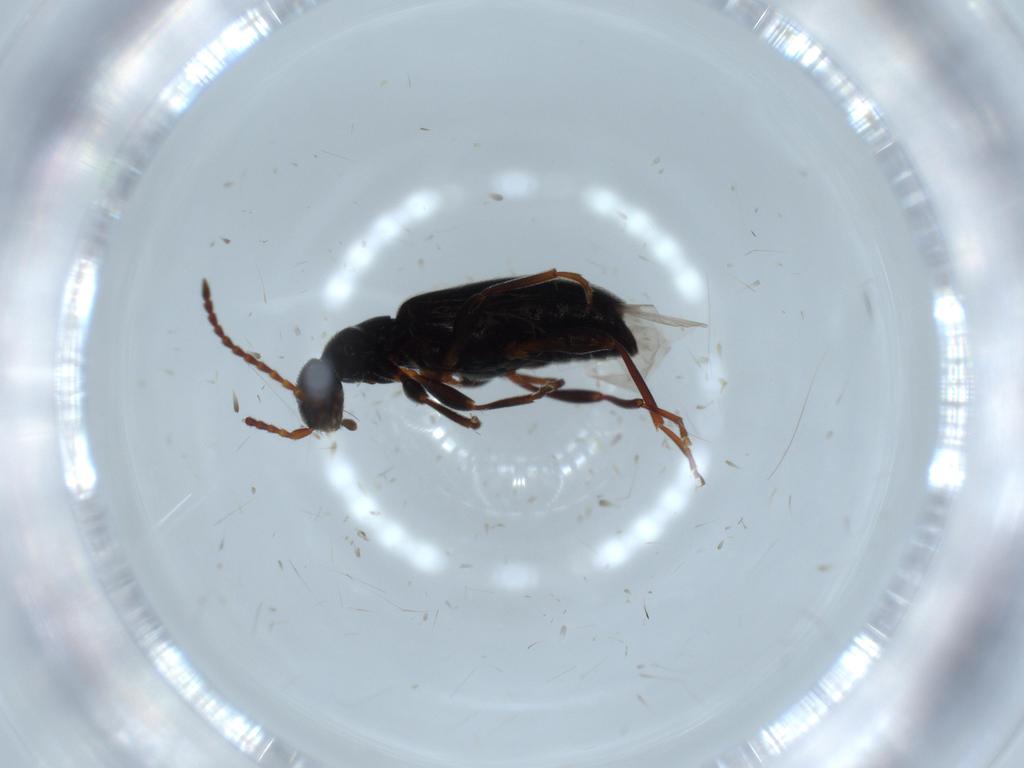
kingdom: Animalia
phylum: Arthropoda
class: Insecta
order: Coleoptera
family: Anthicidae
